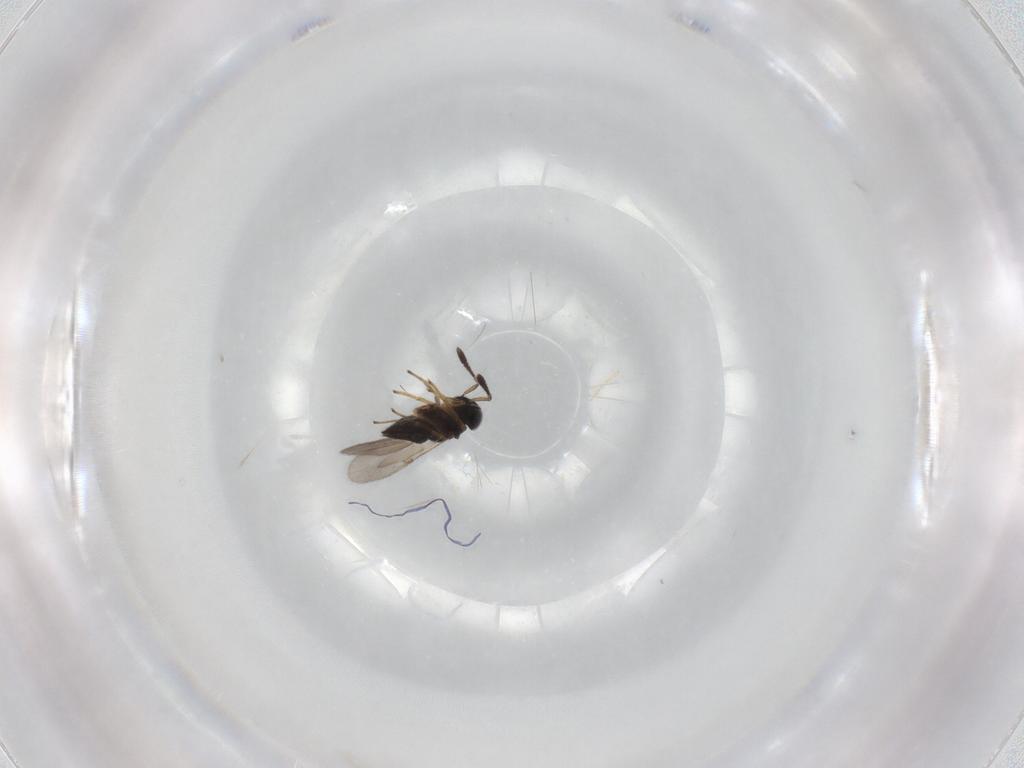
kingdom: Animalia
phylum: Arthropoda
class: Insecta
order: Hymenoptera
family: Encyrtidae
